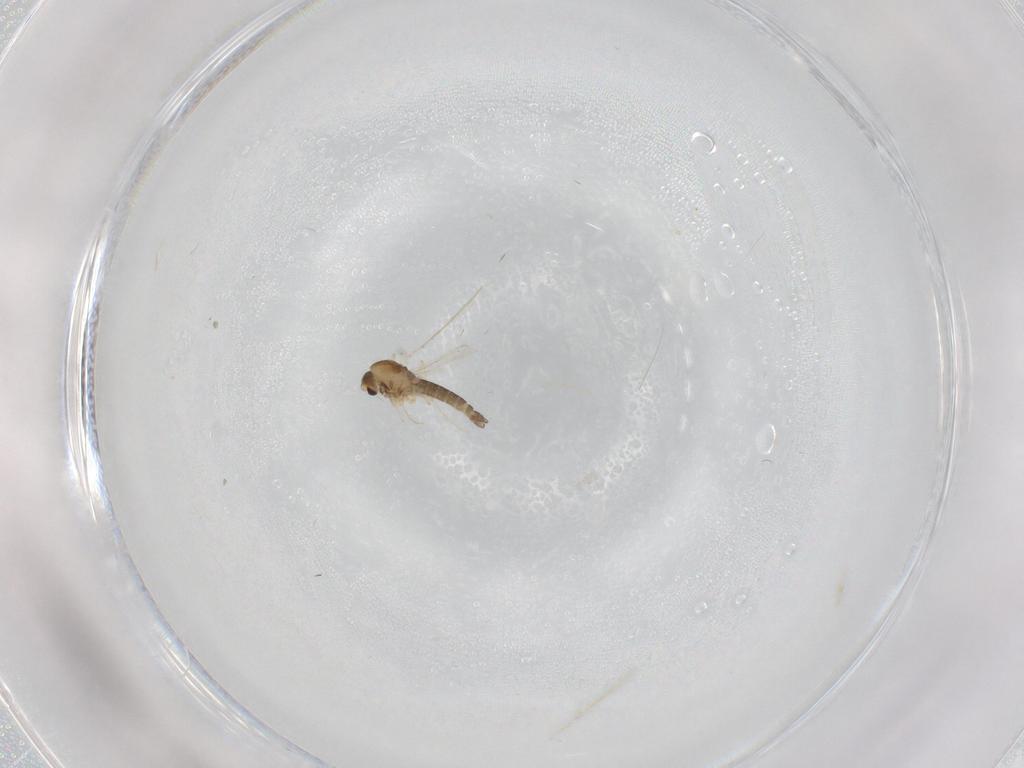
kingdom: Animalia
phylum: Arthropoda
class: Insecta
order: Diptera
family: Chironomidae
